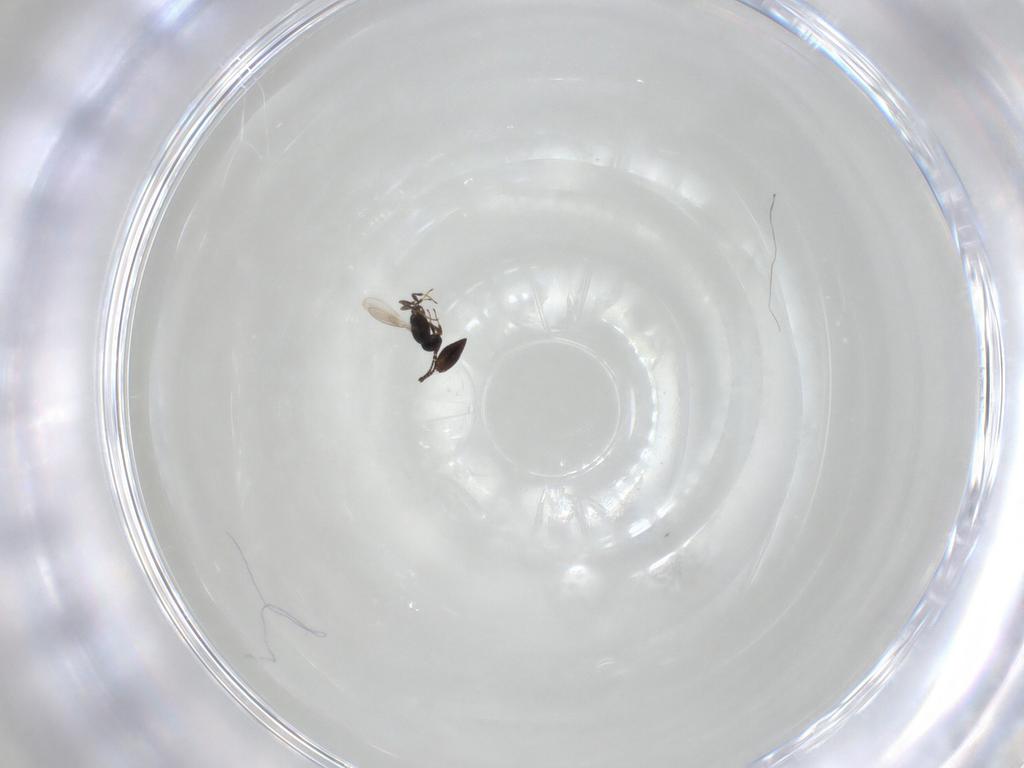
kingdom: Animalia
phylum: Arthropoda
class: Insecta
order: Hymenoptera
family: Scelionidae
